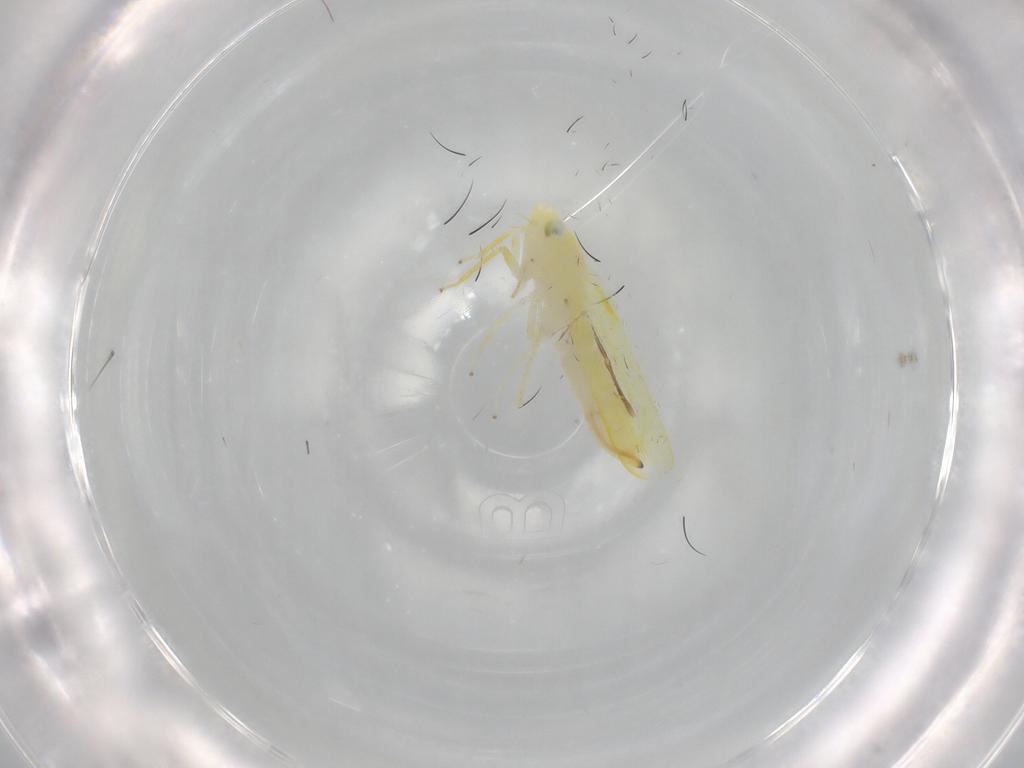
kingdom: Animalia
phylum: Arthropoda
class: Insecta
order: Hemiptera
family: Cicadellidae
